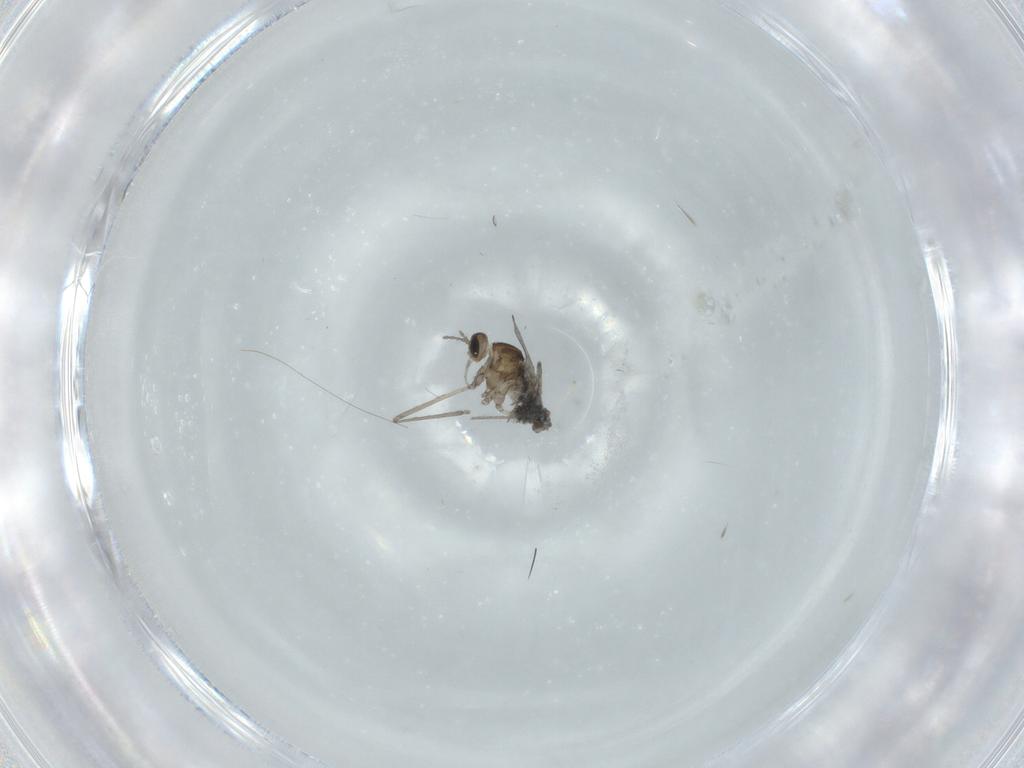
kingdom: Animalia
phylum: Arthropoda
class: Insecta
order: Diptera
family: Cecidomyiidae
